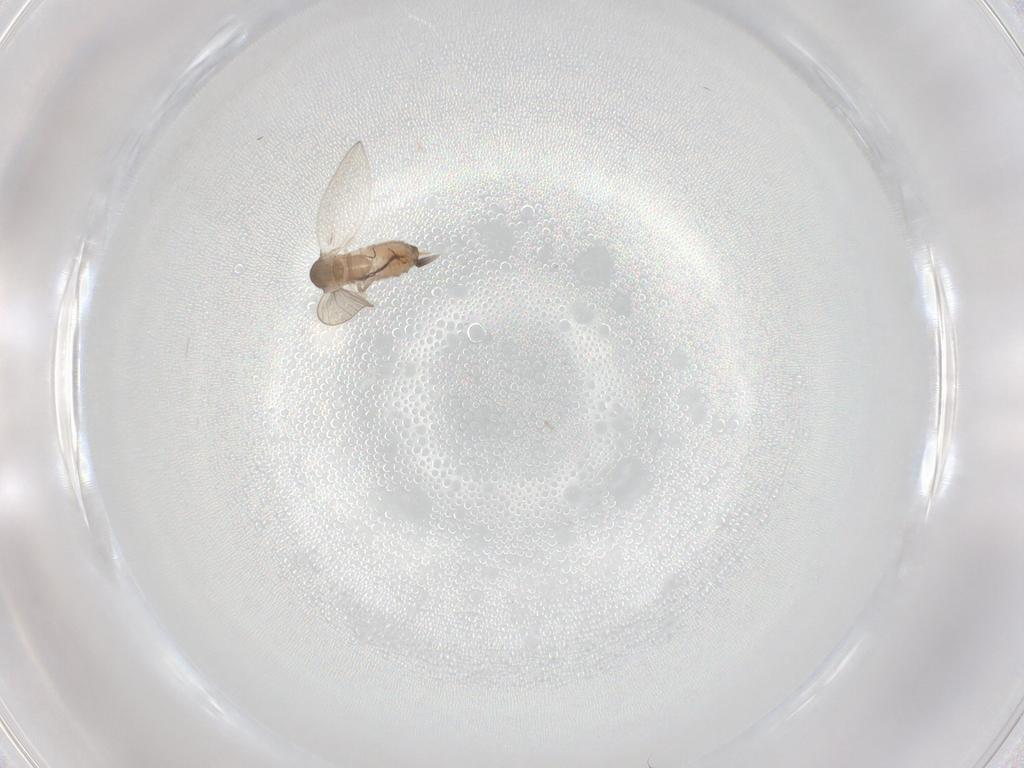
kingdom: Animalia
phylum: Arthropoda
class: Insecta
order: Diptera
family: Psychodidae
